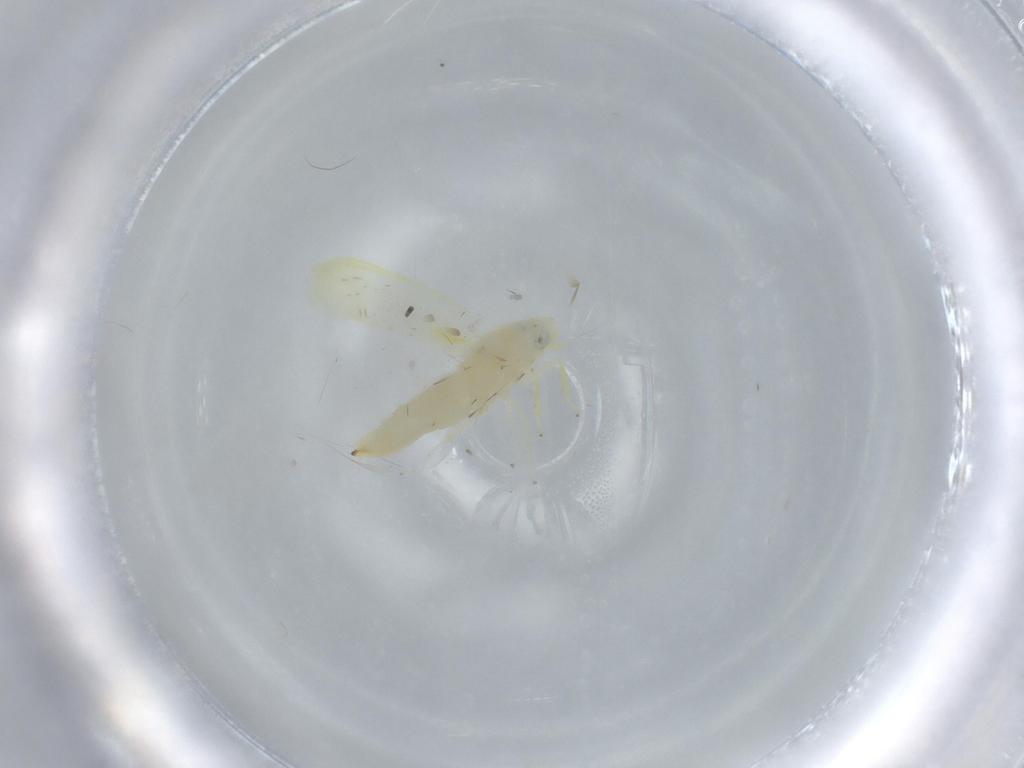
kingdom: Animalia
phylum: Arthropoda
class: Insecta
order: Hemiptera
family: Cicadellidae
